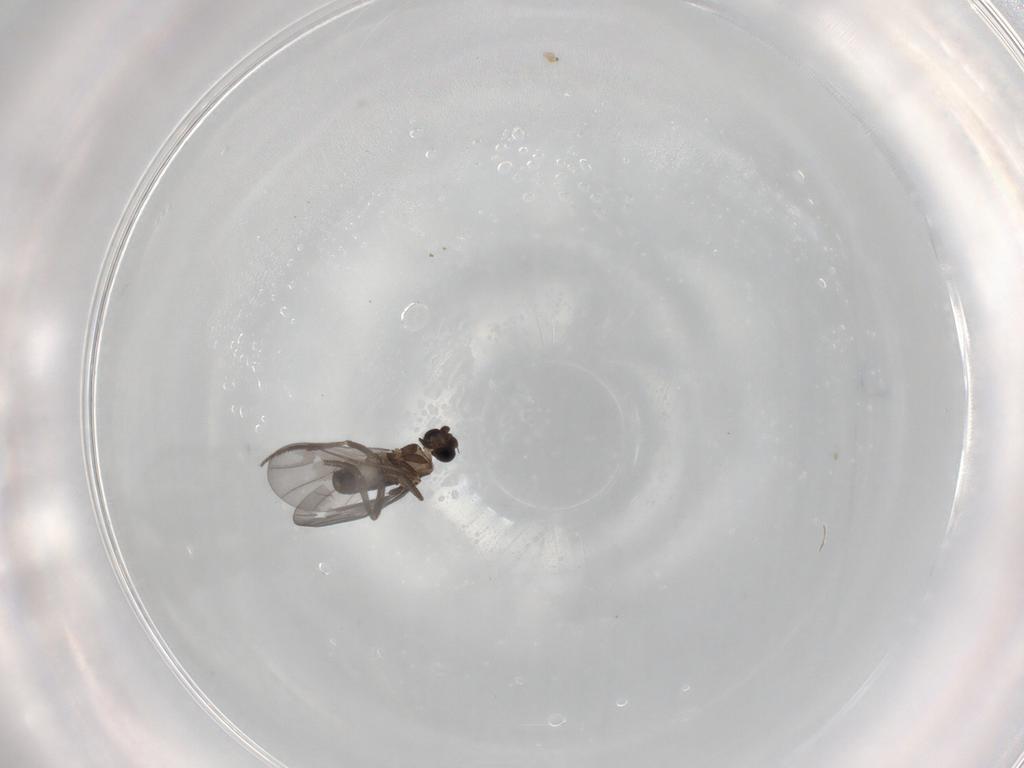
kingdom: Animalia
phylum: Arthropoda
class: Insecta
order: Diptera
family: Phoridae
